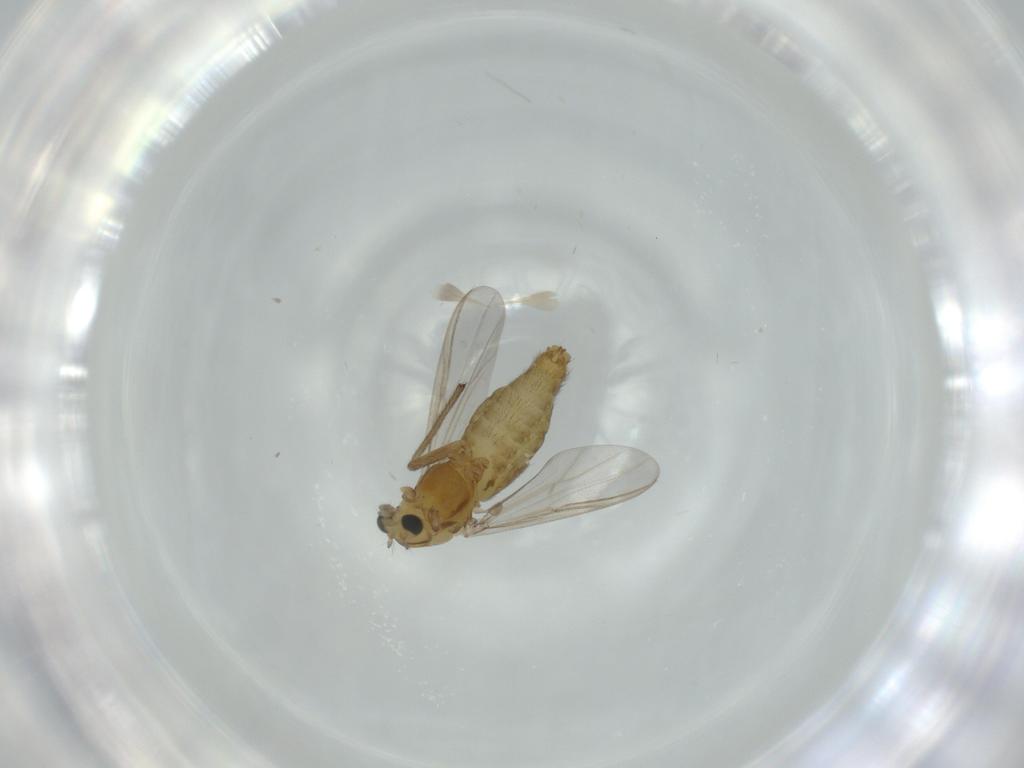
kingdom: Animalia
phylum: Arthropoda
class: Insecta
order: Diptera
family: Chironomidae
